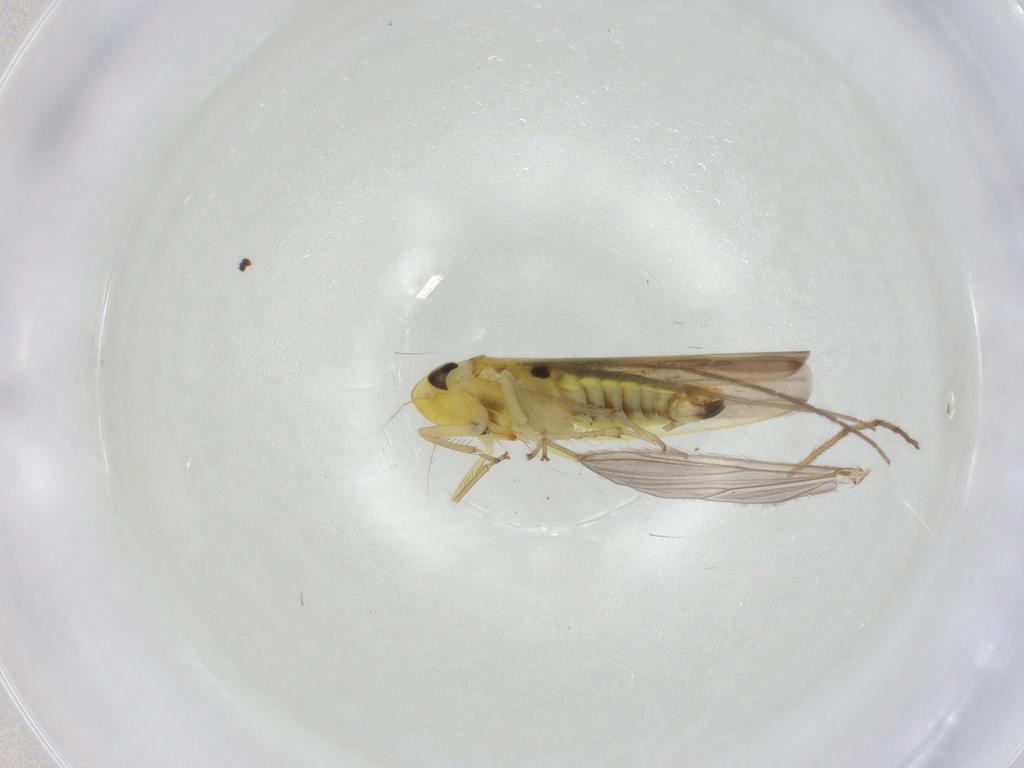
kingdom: Animalia
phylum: Arthropoda
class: Insecta
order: Hemiptera
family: Cicadellidae
